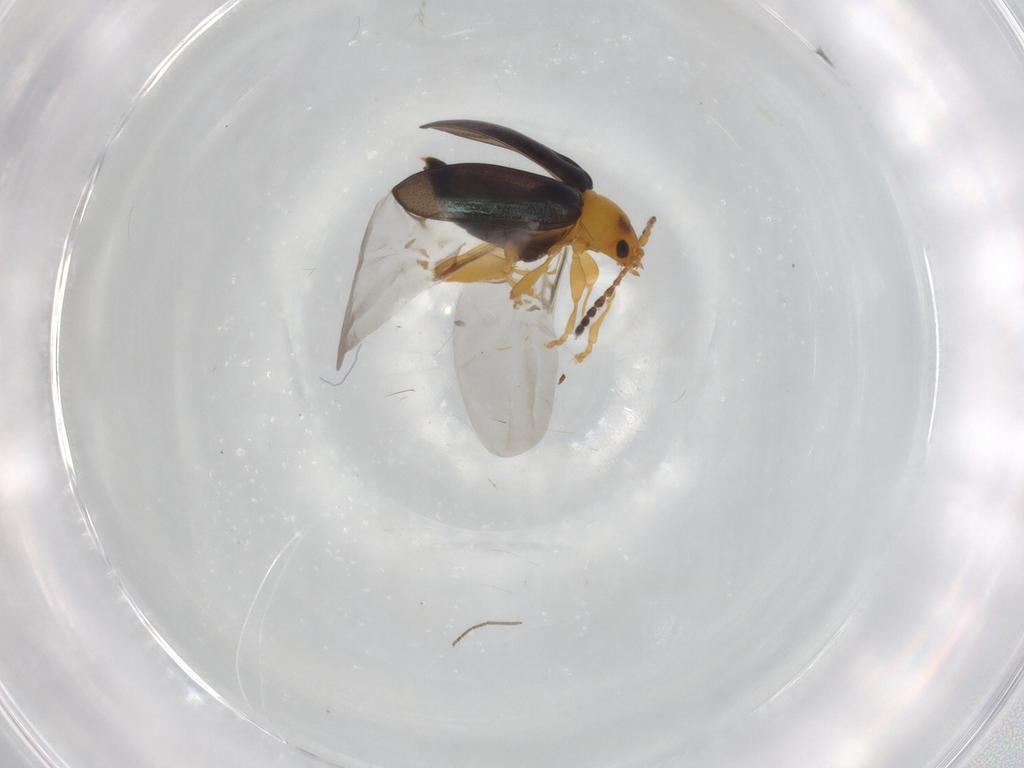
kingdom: Animalia
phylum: Arthropoda
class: Insecta
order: Coleoptera
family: Chrysomelidae
